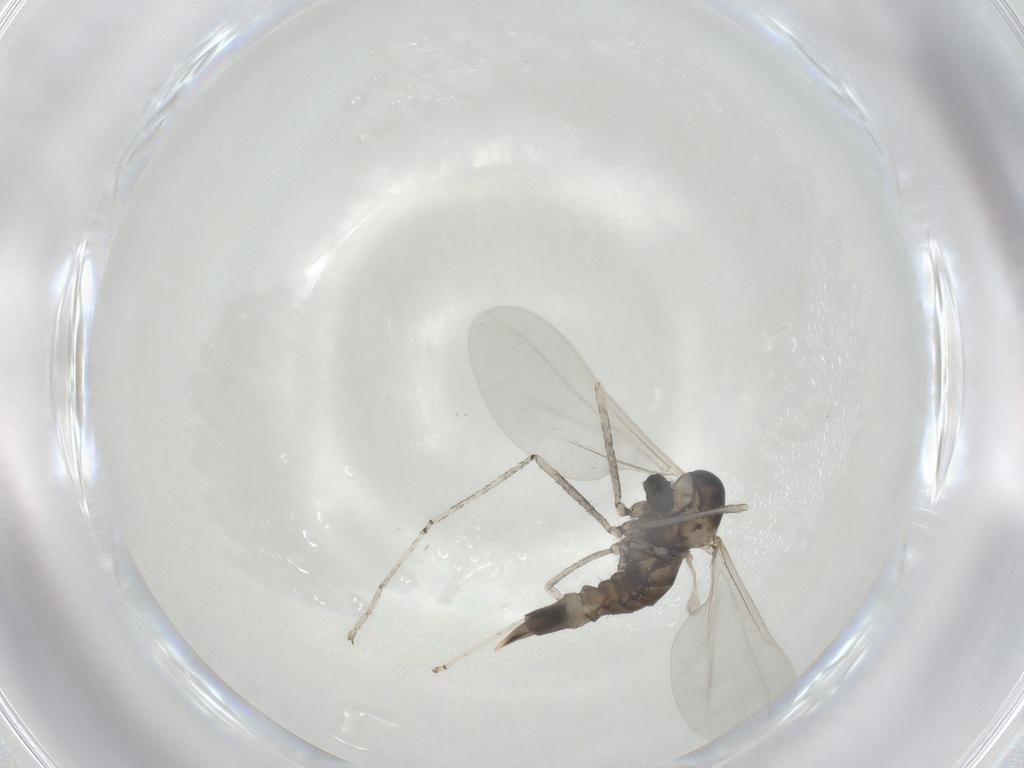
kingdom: Animalia
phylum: Arthropoda
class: Insecta
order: Diptera
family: Cecidomyiidae
